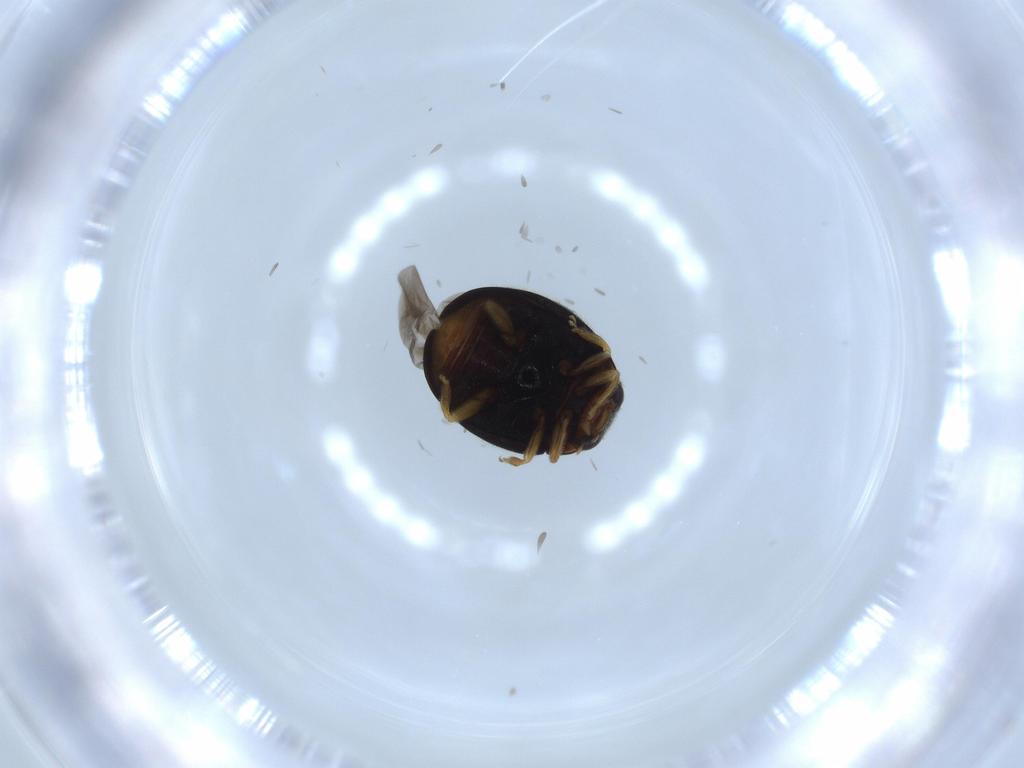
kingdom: Animalia
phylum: Arthropoda
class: Insecta
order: Coleoptera
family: Coccinellidae
